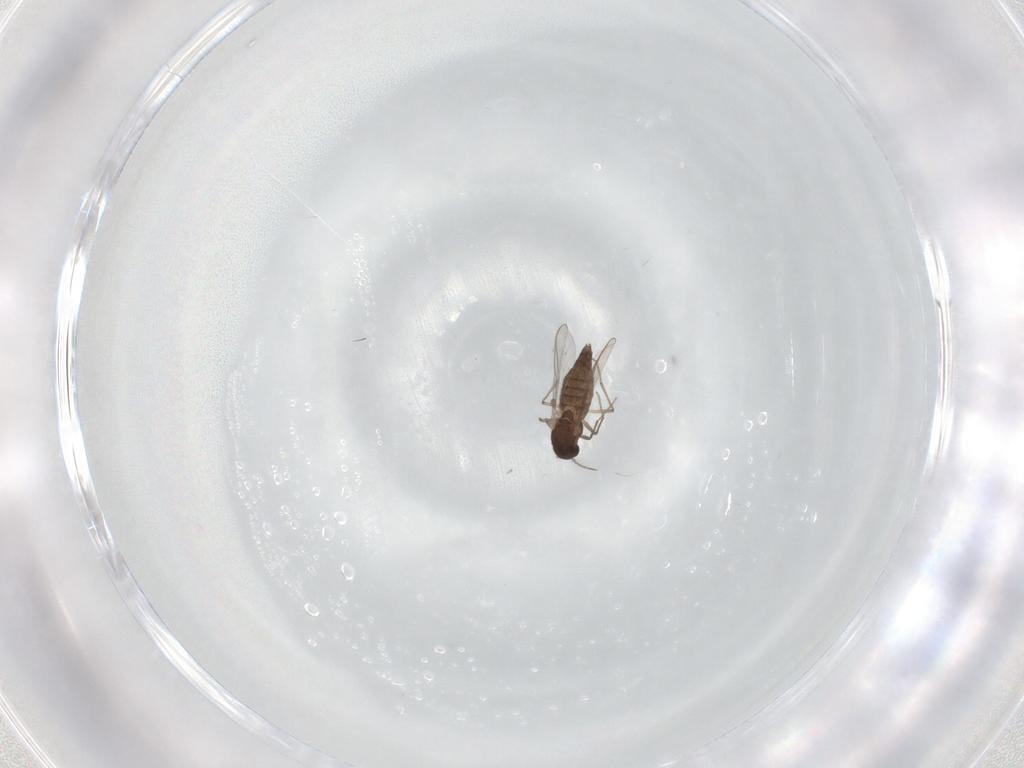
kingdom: Animalia
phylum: Arthropoda
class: Insecta
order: Diptera
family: Chironomidae
